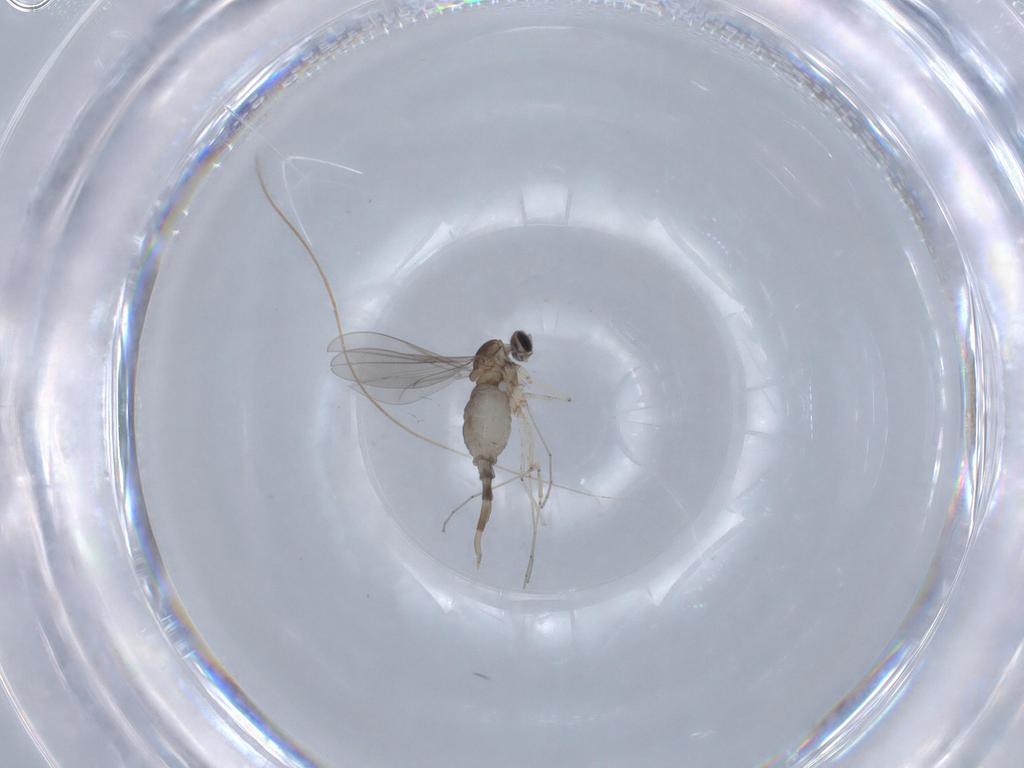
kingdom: Animalia
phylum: Arthropoda
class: Insecta
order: Diptera
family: Cecidomyiidae
